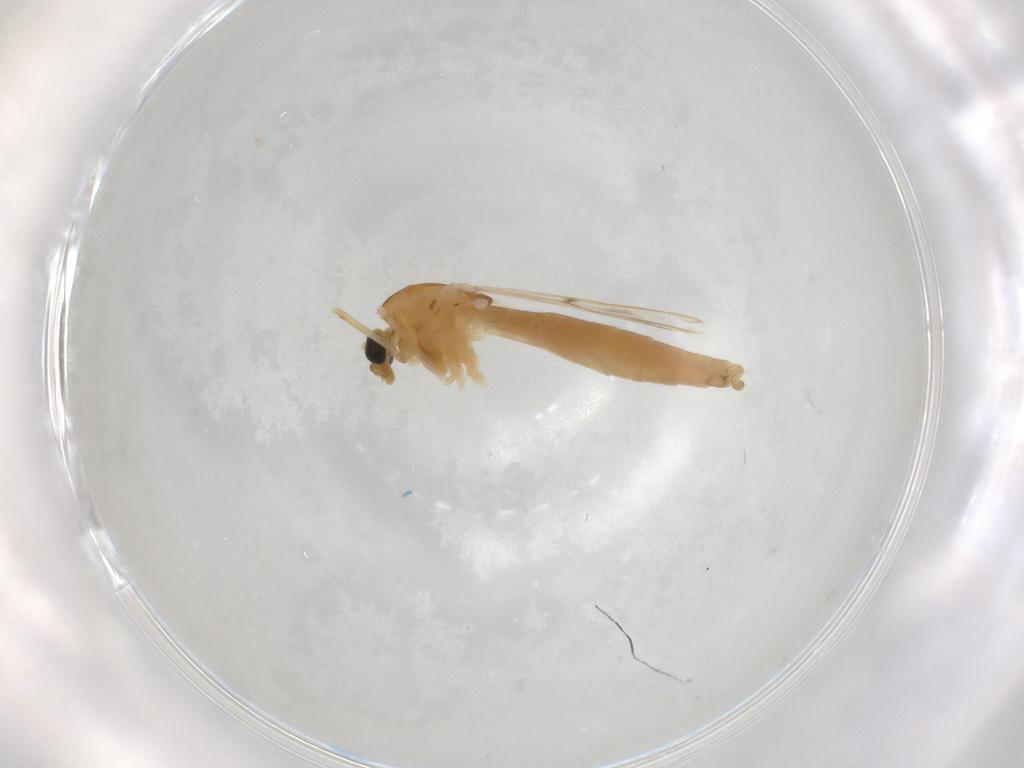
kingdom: Animalia
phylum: Arthropoda
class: Insecta
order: Diptera
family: Chironomidae
